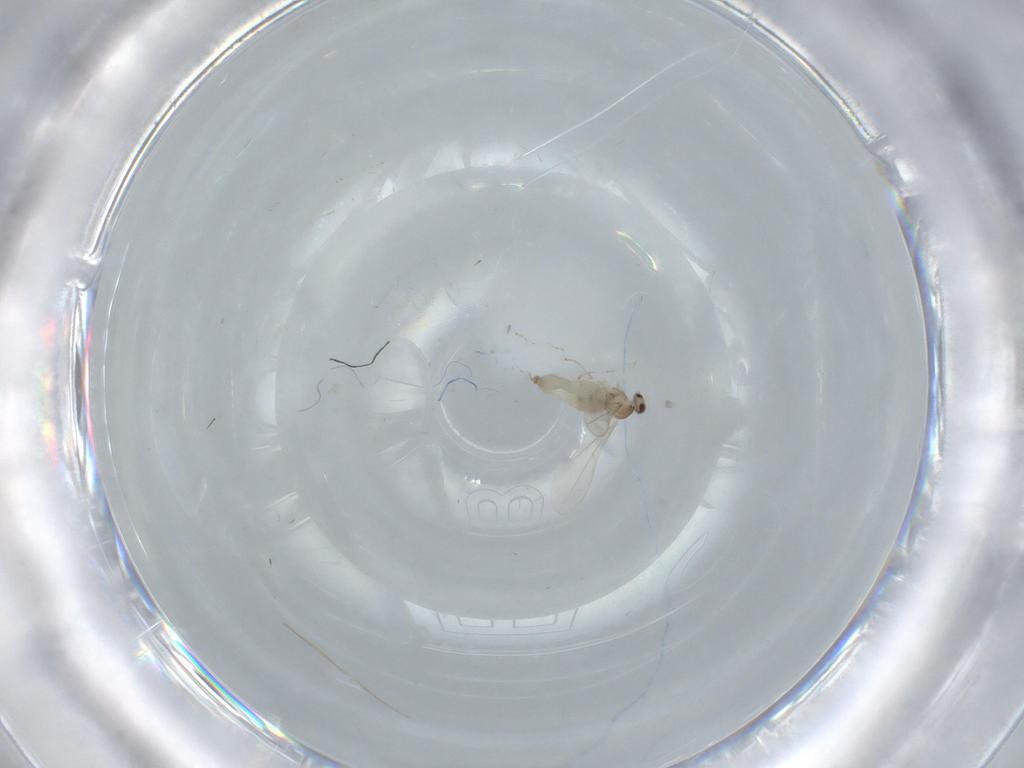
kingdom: Animalia
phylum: Arthropoda
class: Insecta
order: Diptera
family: Cecidomyiidae
